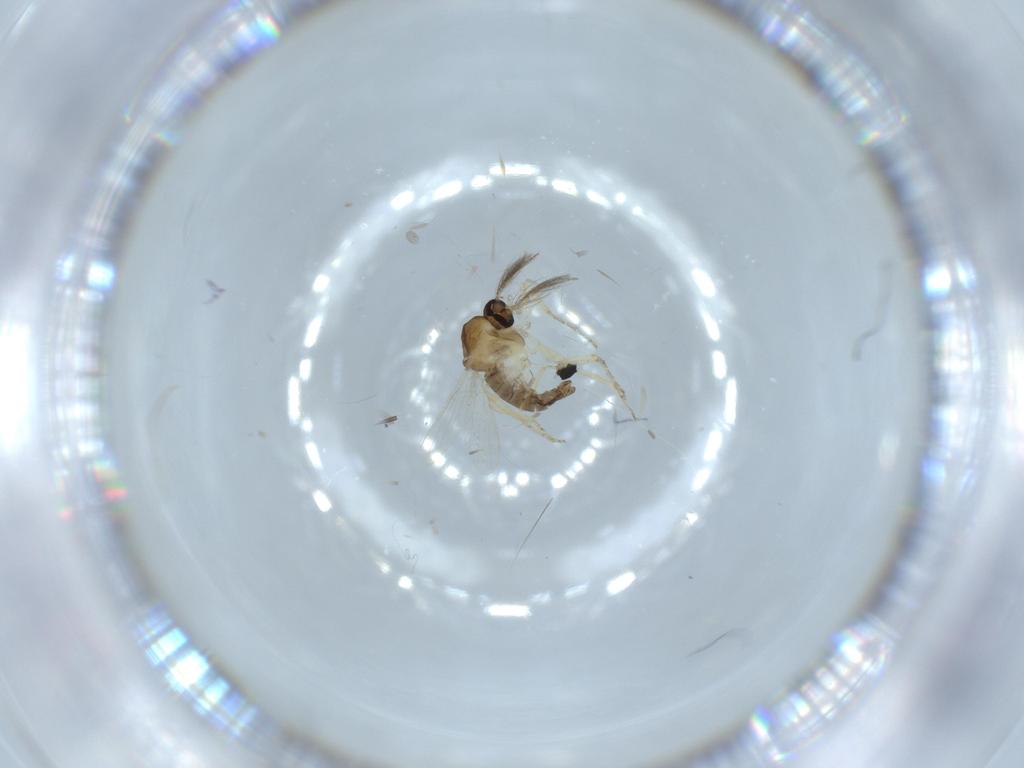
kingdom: Animalia
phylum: Arthropoda
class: Insecta
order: Diptera
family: Ceratopogonidae
